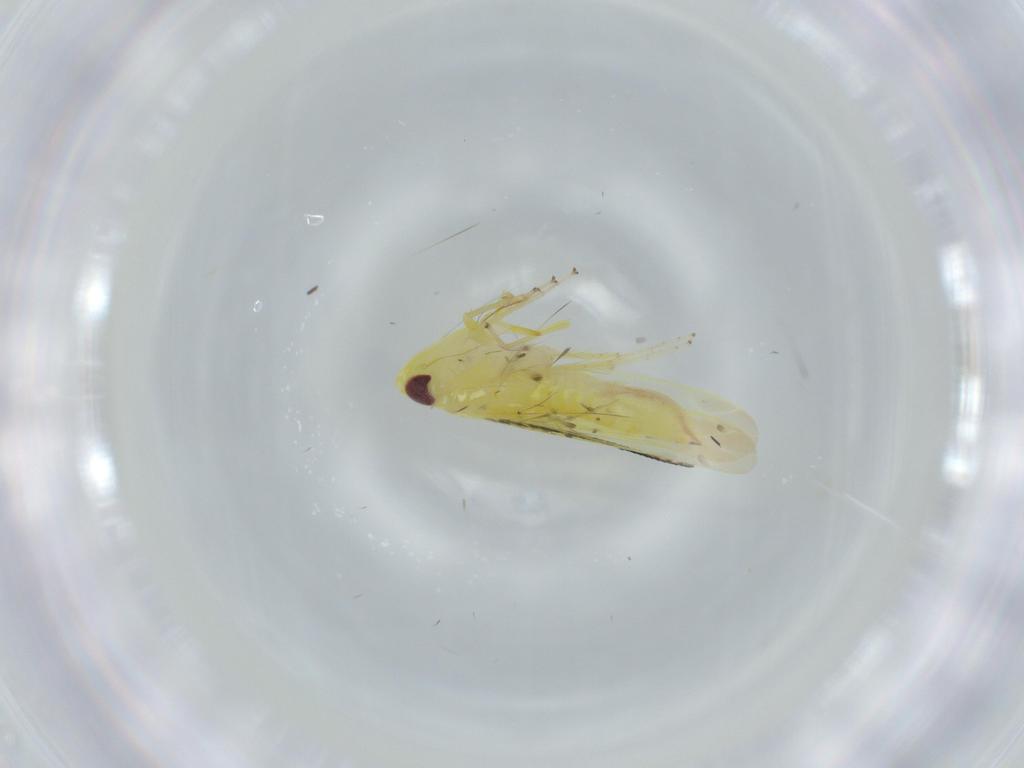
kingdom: Animalia
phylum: Arthropoda
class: Insecta
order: Hemiptera
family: Cicadellidae
